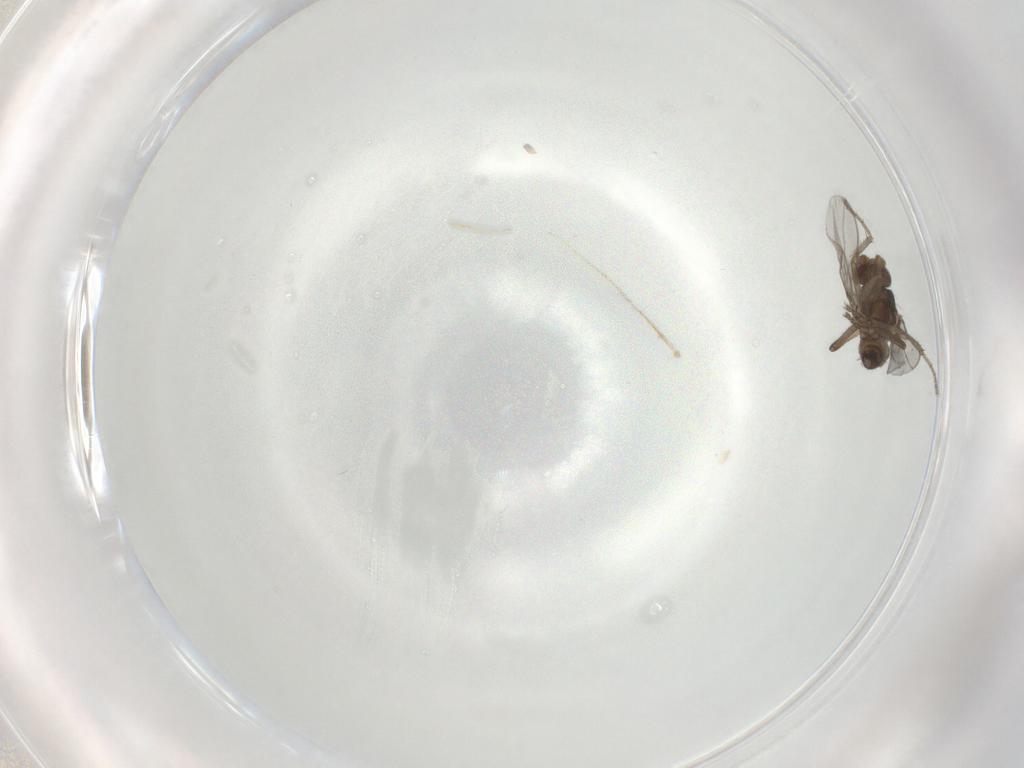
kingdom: Animalia
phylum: Arthropoda
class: Insecta
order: Diptera
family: Sphaeroceridae
